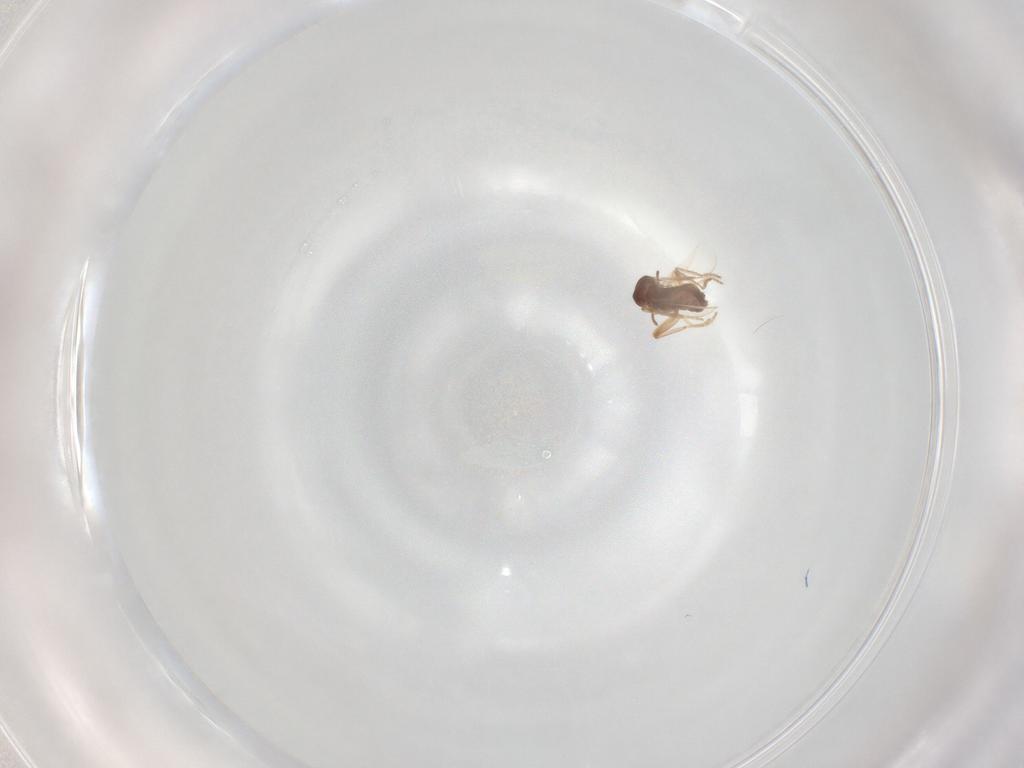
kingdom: Animalia
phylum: Arthropoda
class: Insecta
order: Diptera
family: Ceratopogonidae
